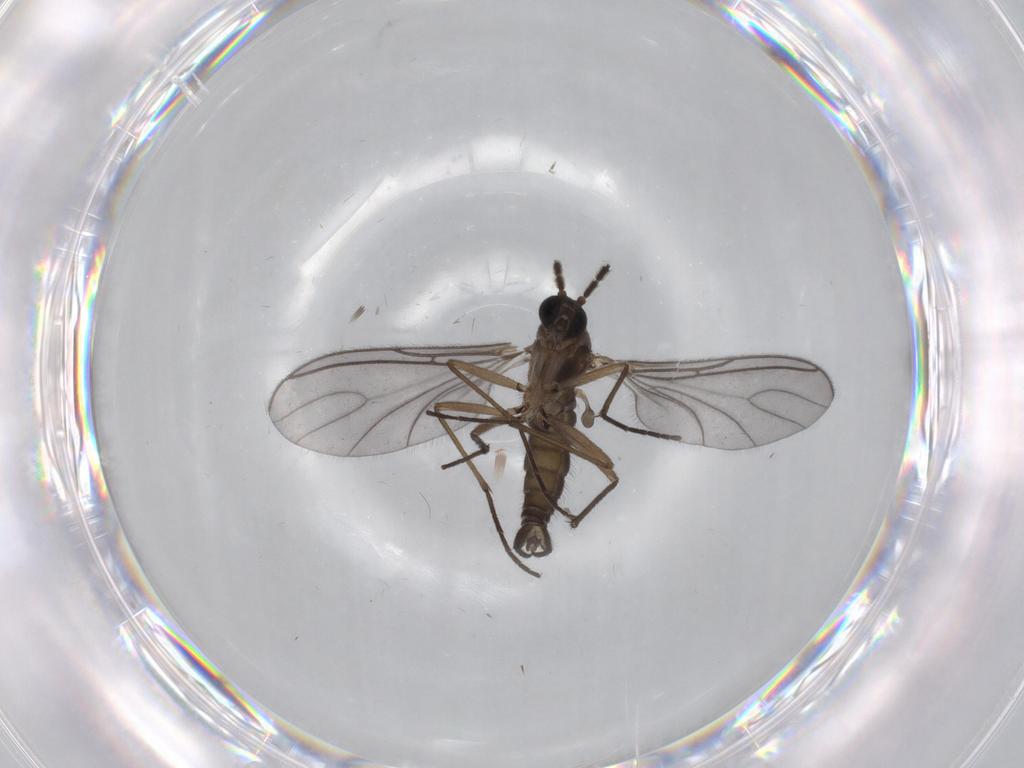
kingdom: Animalia
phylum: Arthropoda
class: Insecta
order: Diptera
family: Sciaridae
